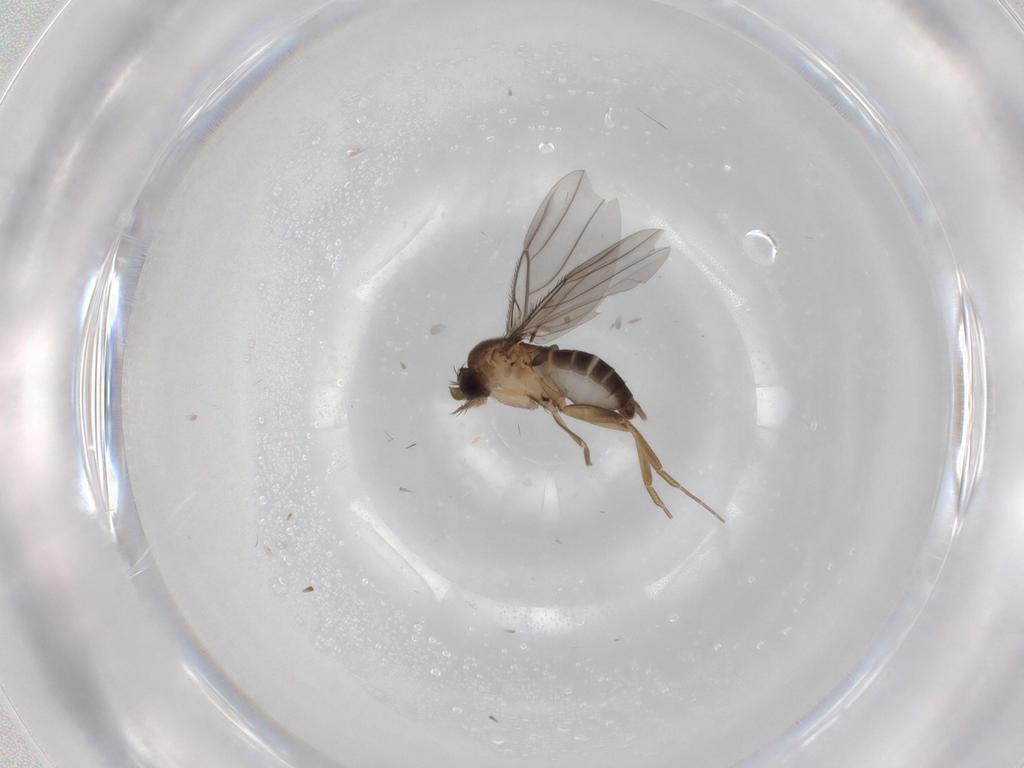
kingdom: Animalia
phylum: Arthropoda
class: Insecta
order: Diptera
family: Phoridae
